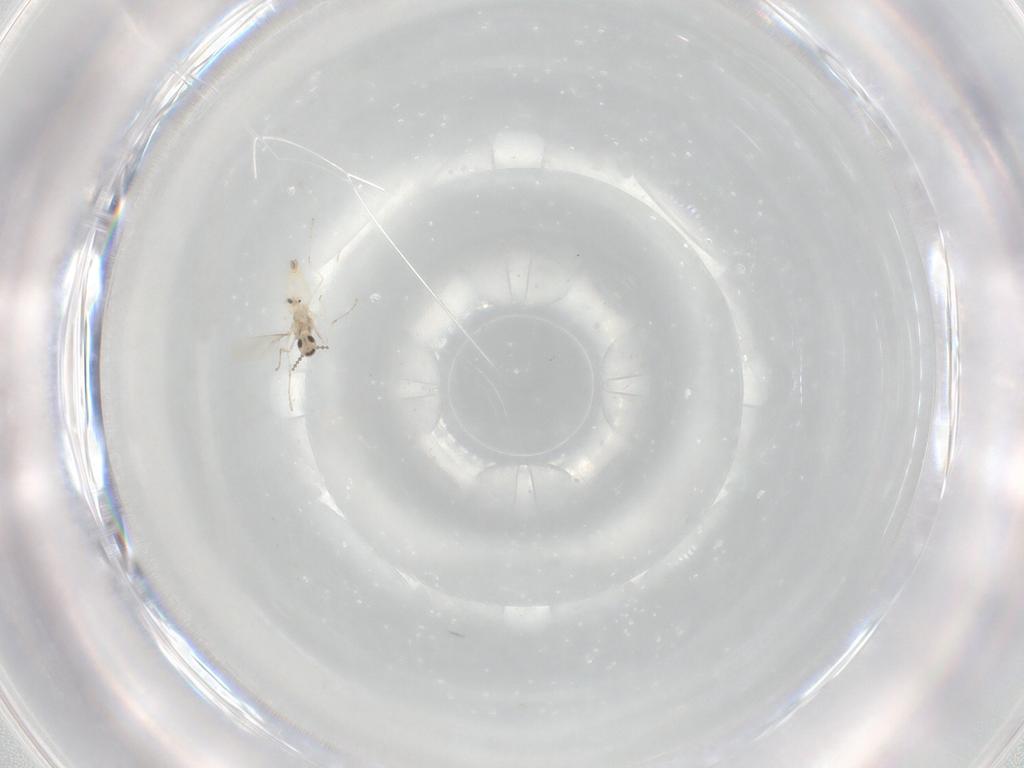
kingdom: Animalia
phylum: Arthropoda
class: Insecta
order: Diptera
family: Cecidomyiidae
